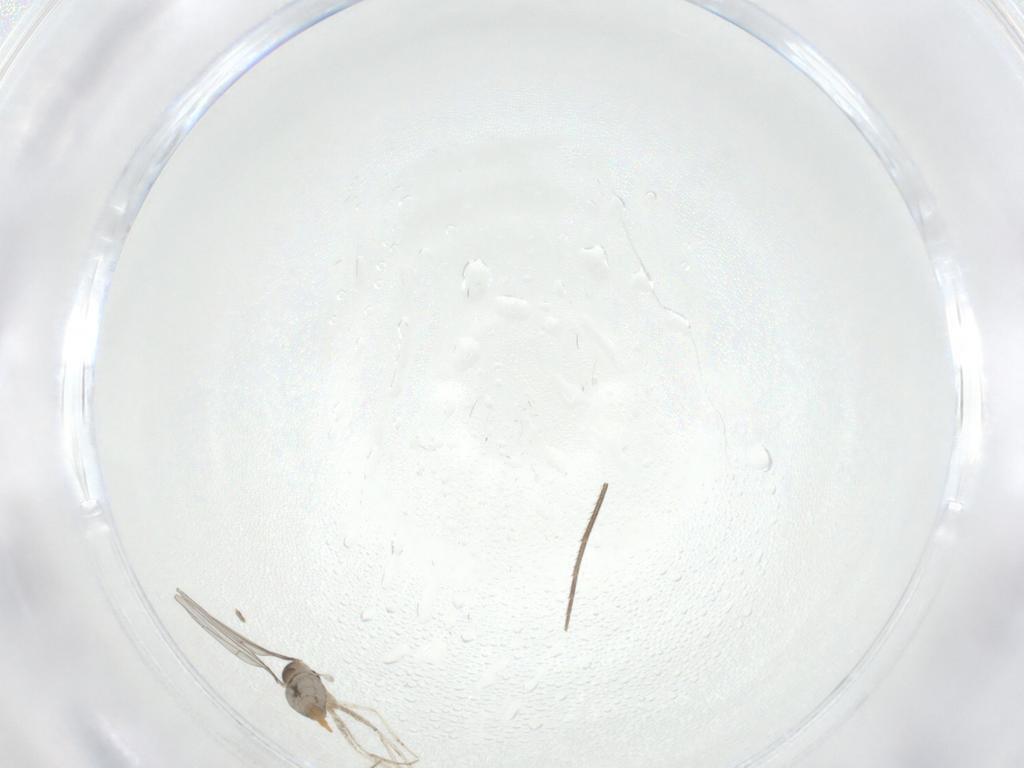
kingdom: Animalia
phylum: Arthropoda
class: Insecta
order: Diptera
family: Cecidomyiidae
